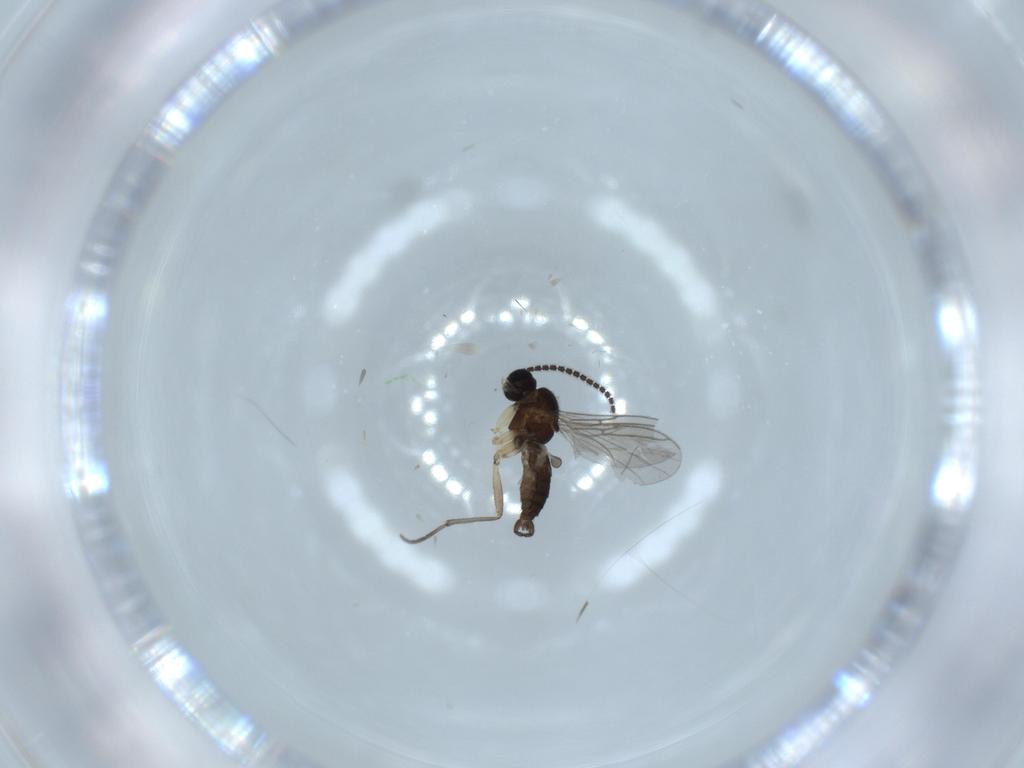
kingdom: Animalia
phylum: Arthropoda
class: Insecta
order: Diptera
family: Sciaridae
